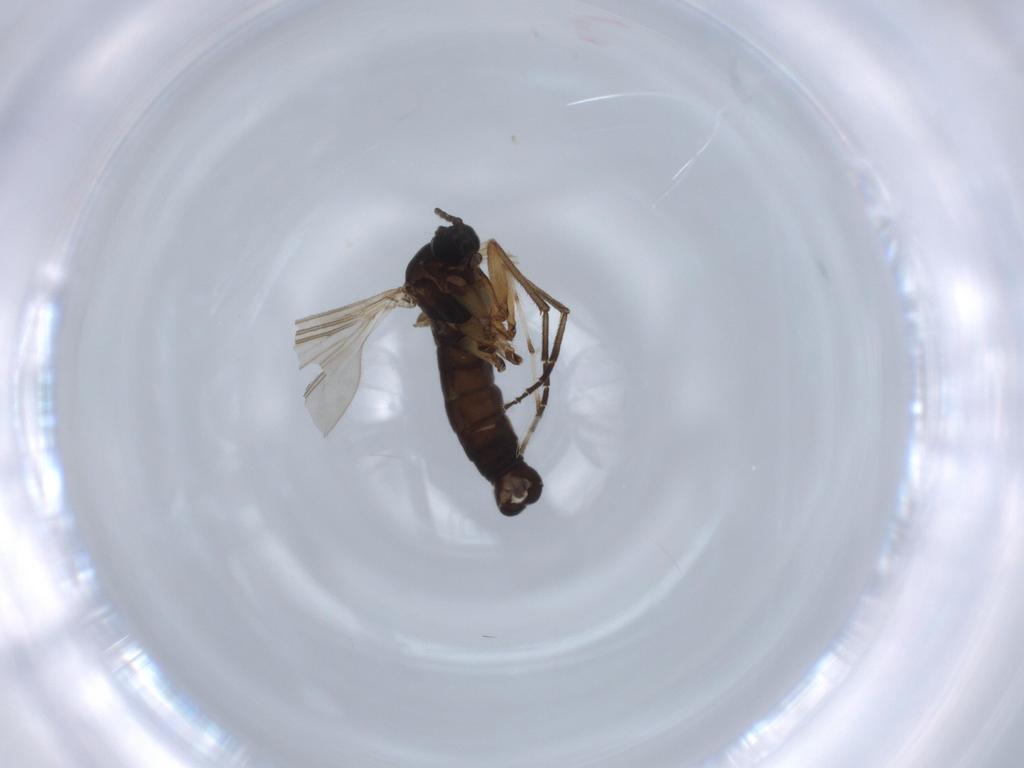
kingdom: Animalia
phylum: Arthropoda
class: Insecta
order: Diptera
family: Sciaridae
